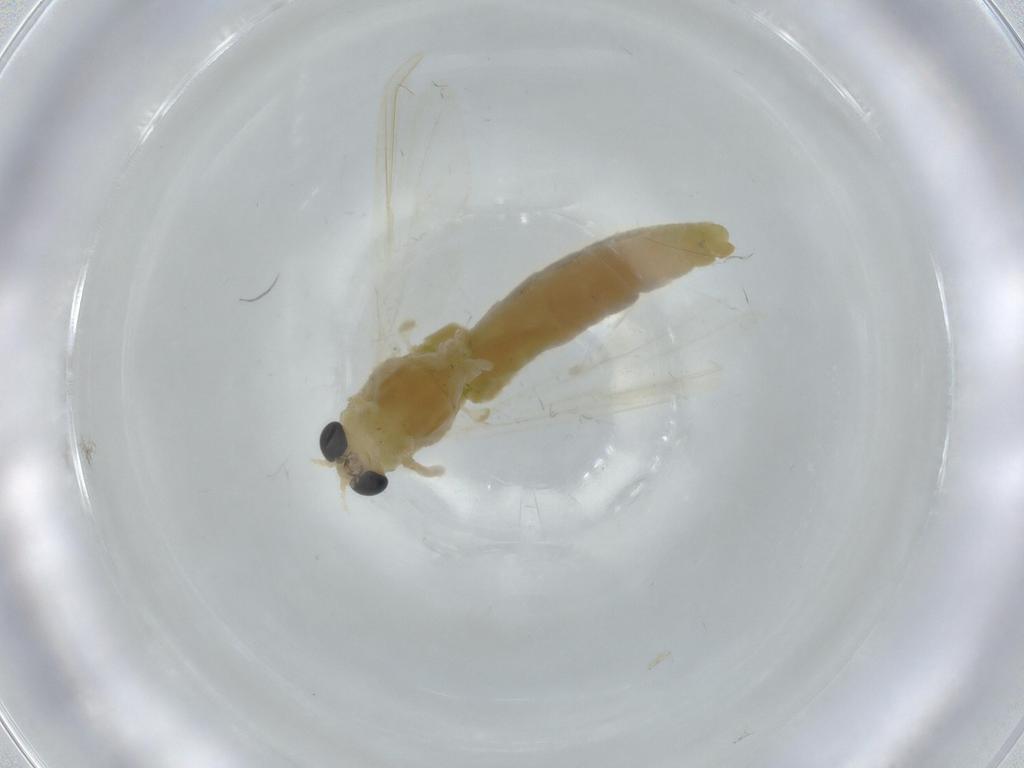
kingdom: Animalia
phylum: Arthropoda
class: Insecta
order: Diptera
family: Chironomidae
